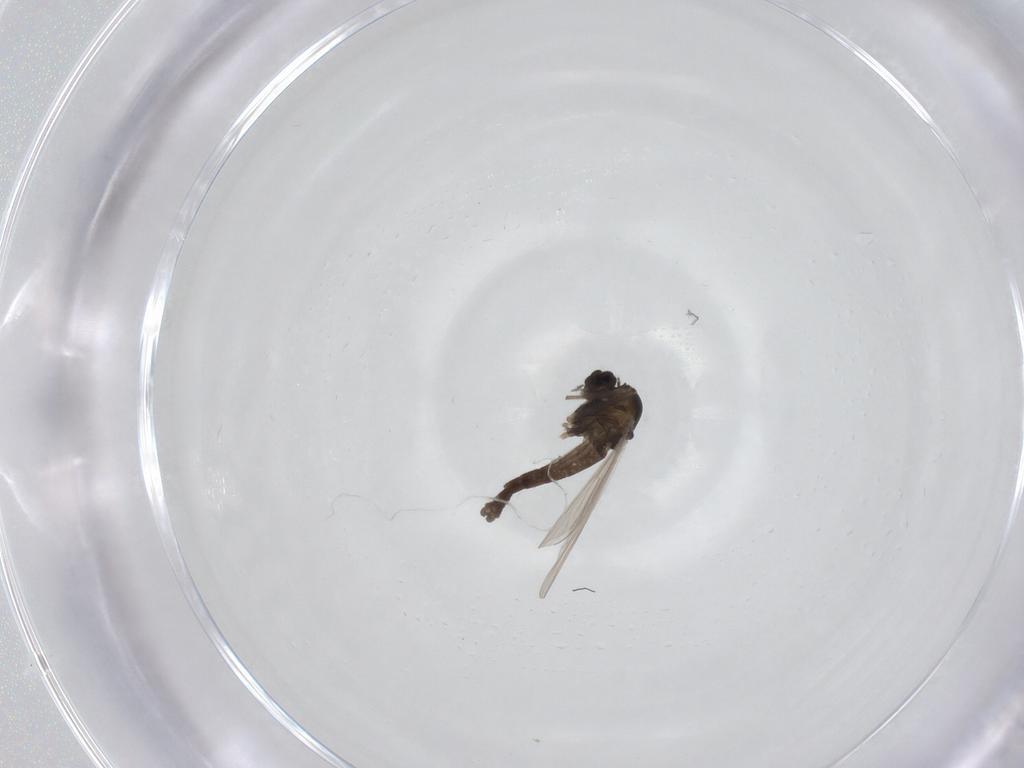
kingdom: Animalia
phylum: Arthropoda
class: Insecta
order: Diptera
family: Chironomidae
